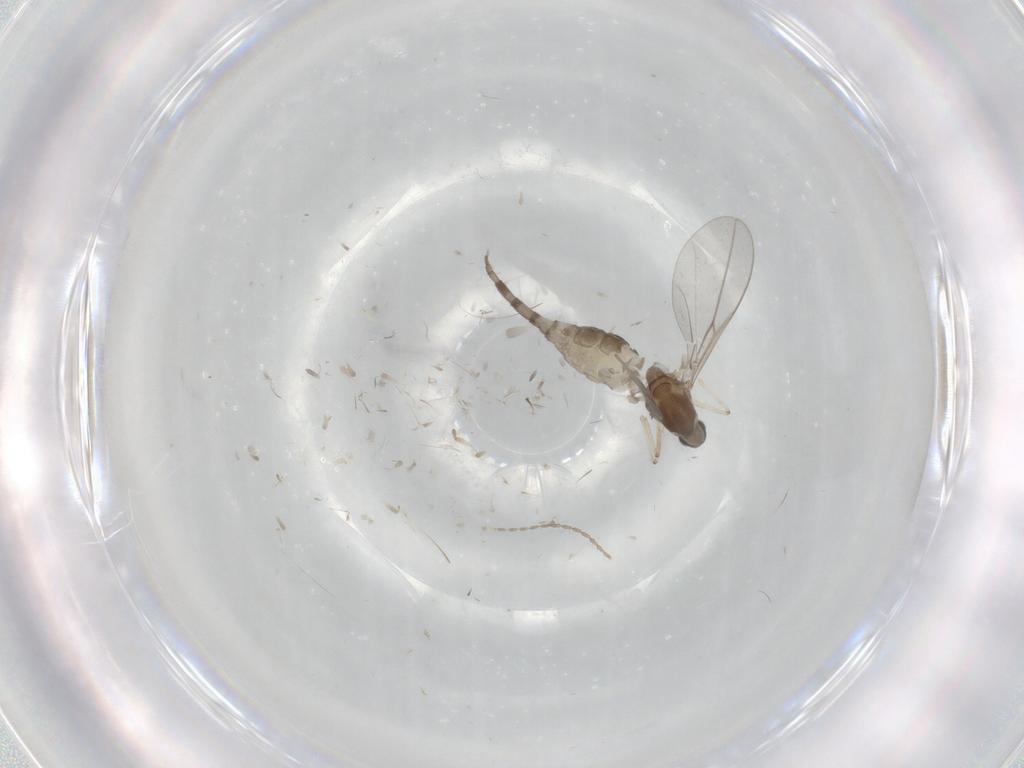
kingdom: Animalia
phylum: Arthropoda
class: Insecta
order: Diptera
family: Cecidomyiidae
